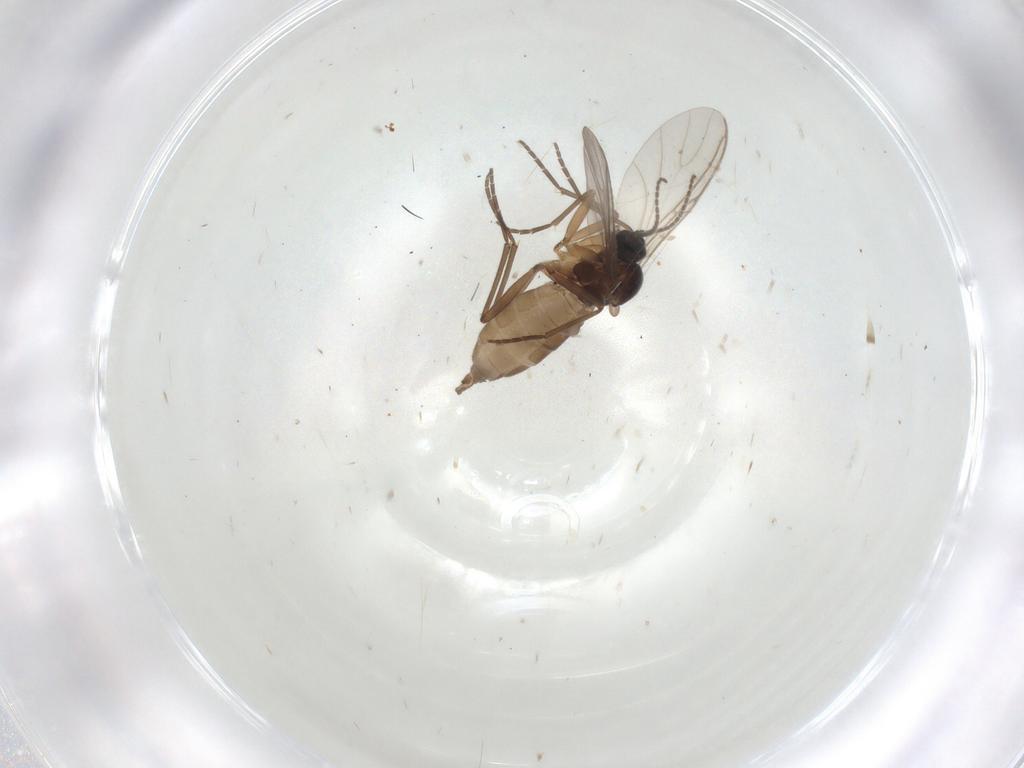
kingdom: Animalia
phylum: Arthropoda
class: Insecta
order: Diptera
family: Sciaridae
